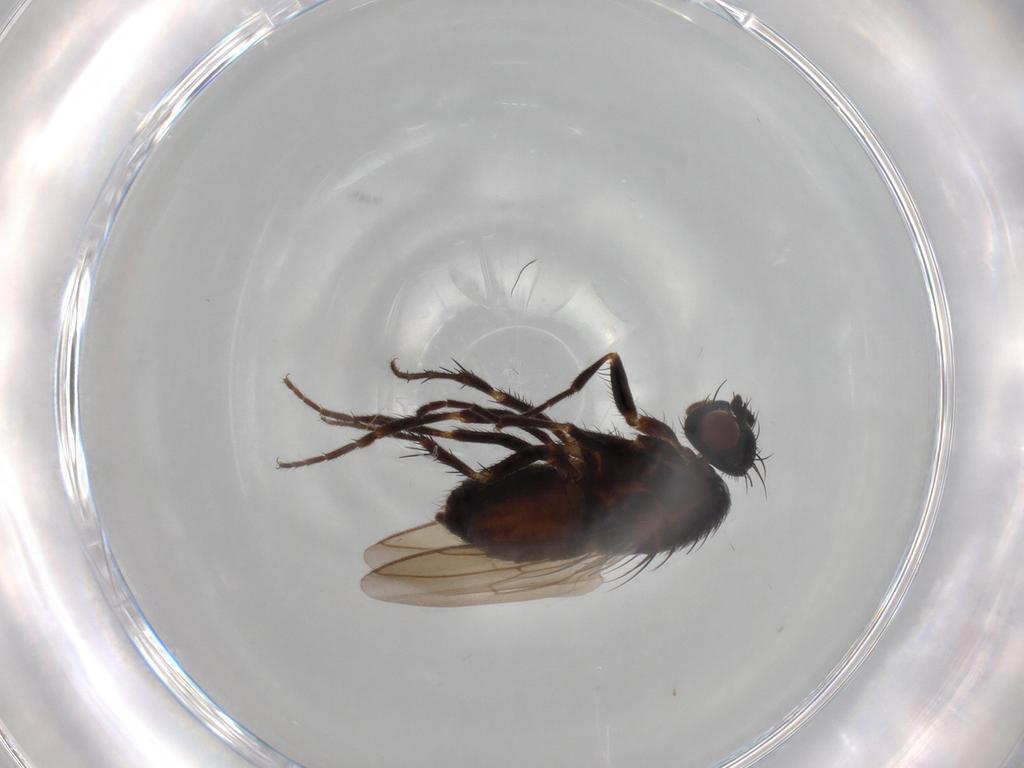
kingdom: Animalia
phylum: Arthropoda
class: Insecta
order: Diptera
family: Sphaeroceridae
